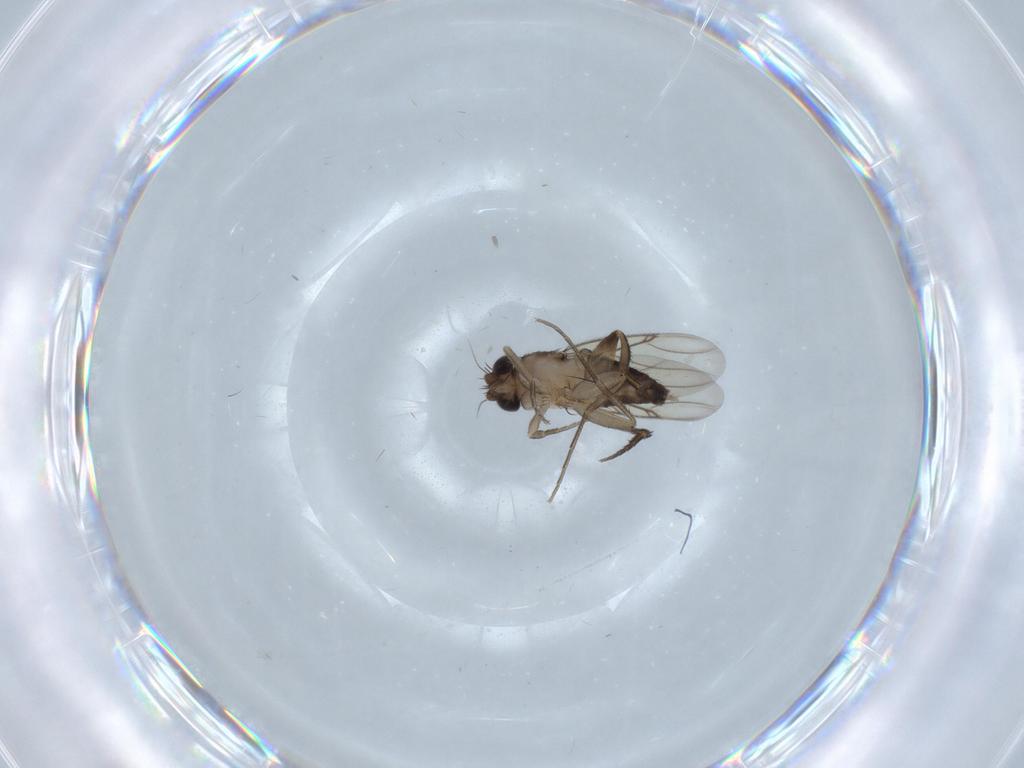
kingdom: Animalia
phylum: Arthropoda
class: Insecta
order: Diptera
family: Phoridae
